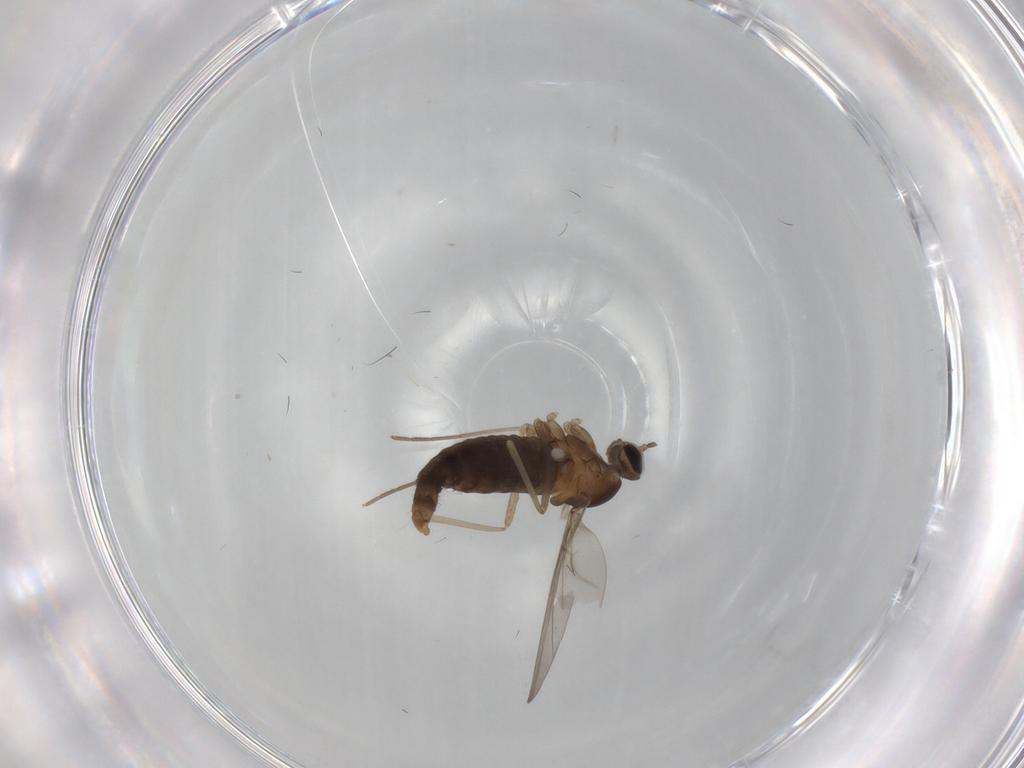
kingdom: Animalia
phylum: Arthropoda
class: Insecta
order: Diptera
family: Cecidomyiidae
